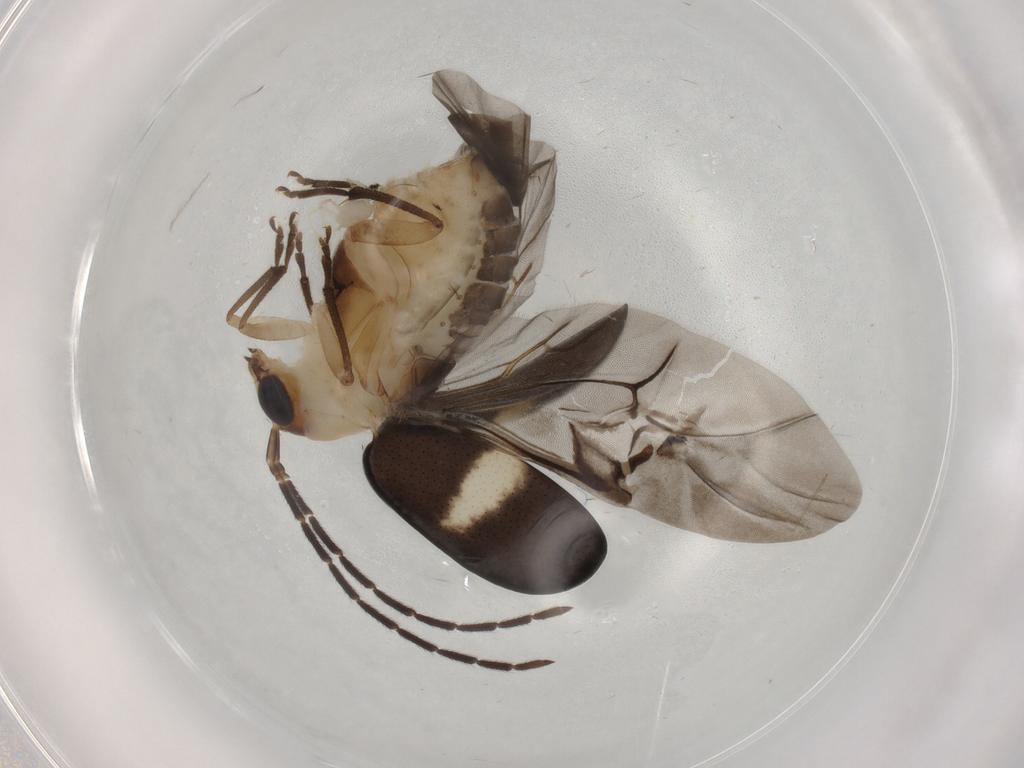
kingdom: Animalia
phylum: Arthropoda
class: Insecta
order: Coleoptera
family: Chrysomelidae
